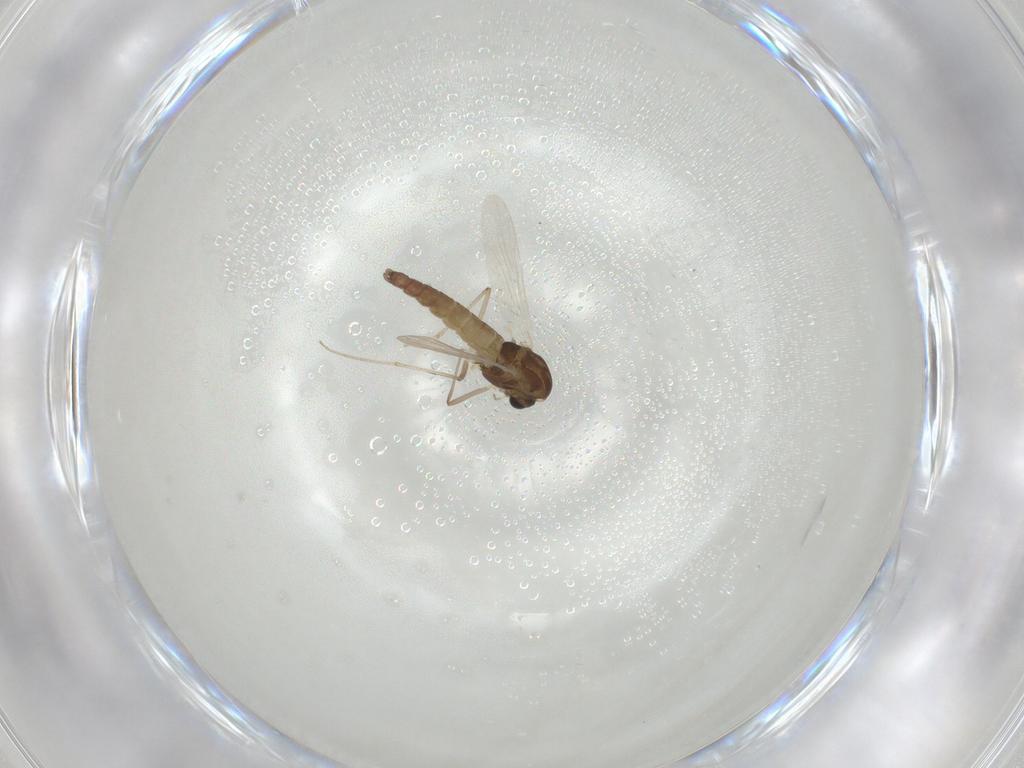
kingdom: Animalia
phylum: Arthropoda
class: Insecta
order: Diptera
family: Chironomidae
